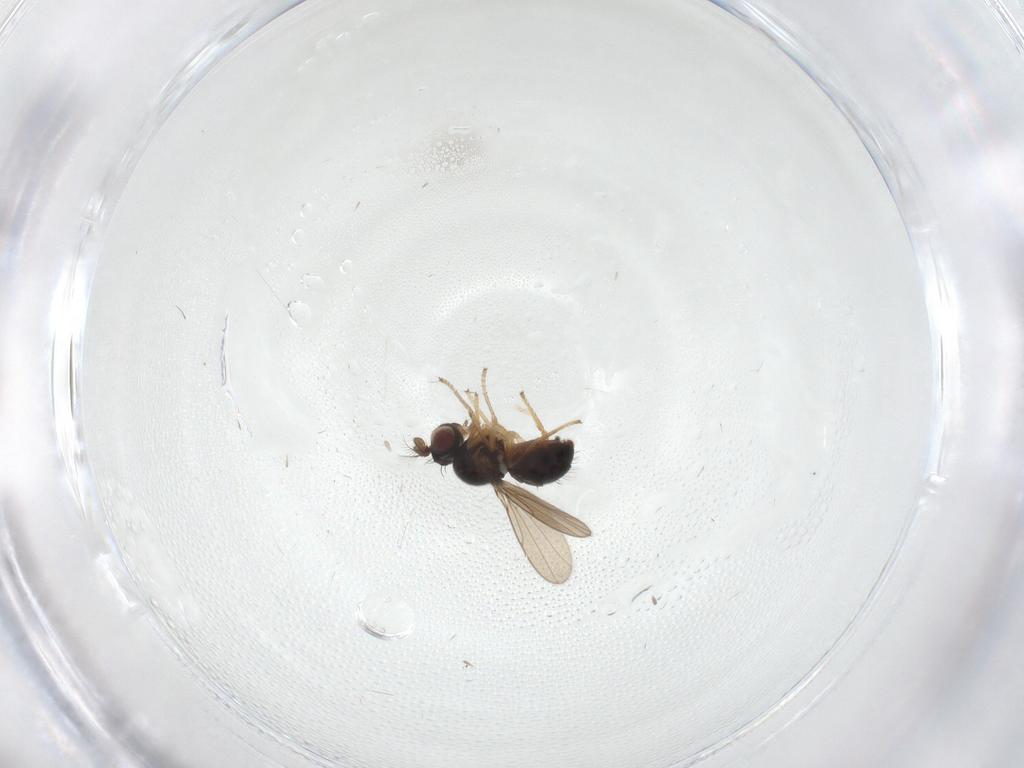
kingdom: Animalia
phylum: Arthropoda
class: Insecta
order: Diptera
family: Ephydridae
